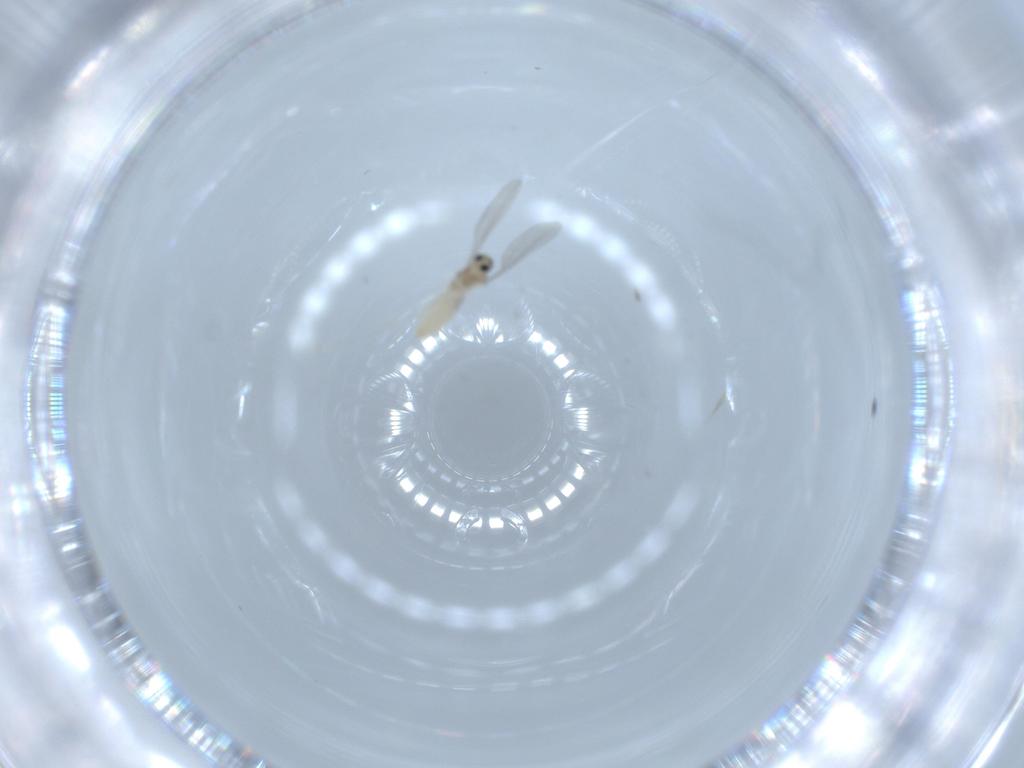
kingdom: Animalia
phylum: Arthropoda
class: Insecta
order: Diptera
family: Cecidomyiidae
